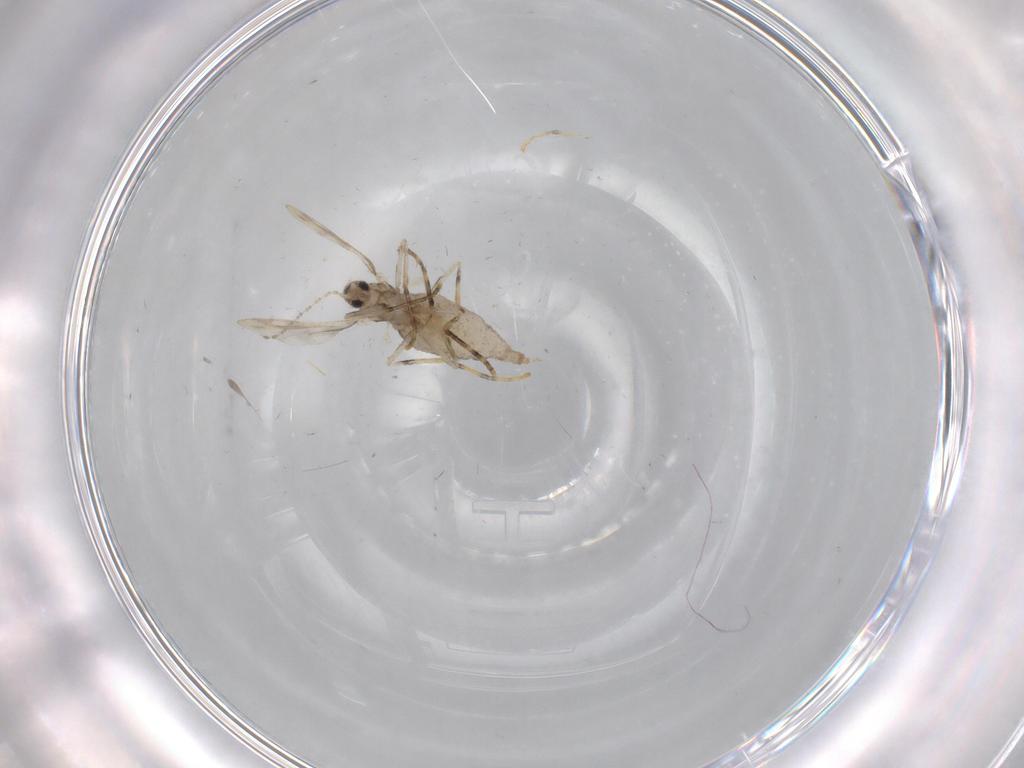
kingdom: Animalia
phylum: Arthropoda
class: Insecta
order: Diptera
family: Cecidomyiidae
